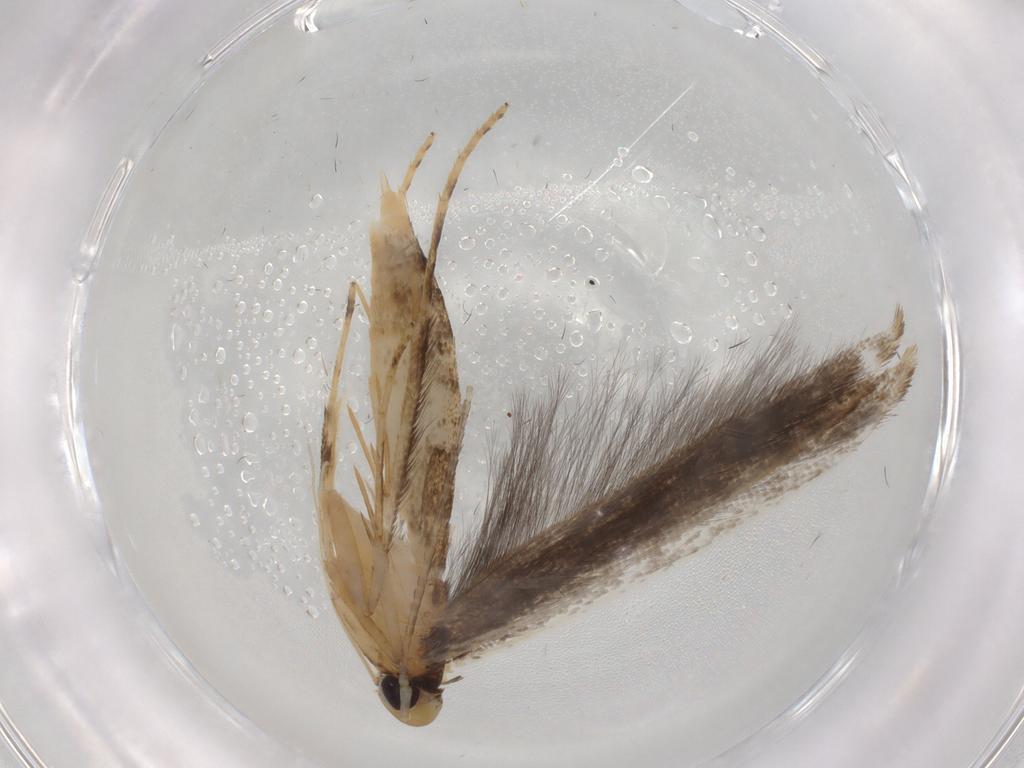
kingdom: Animalia
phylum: Arthropoda
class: Insecta
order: Lepidoptera
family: Pterolonchidae
